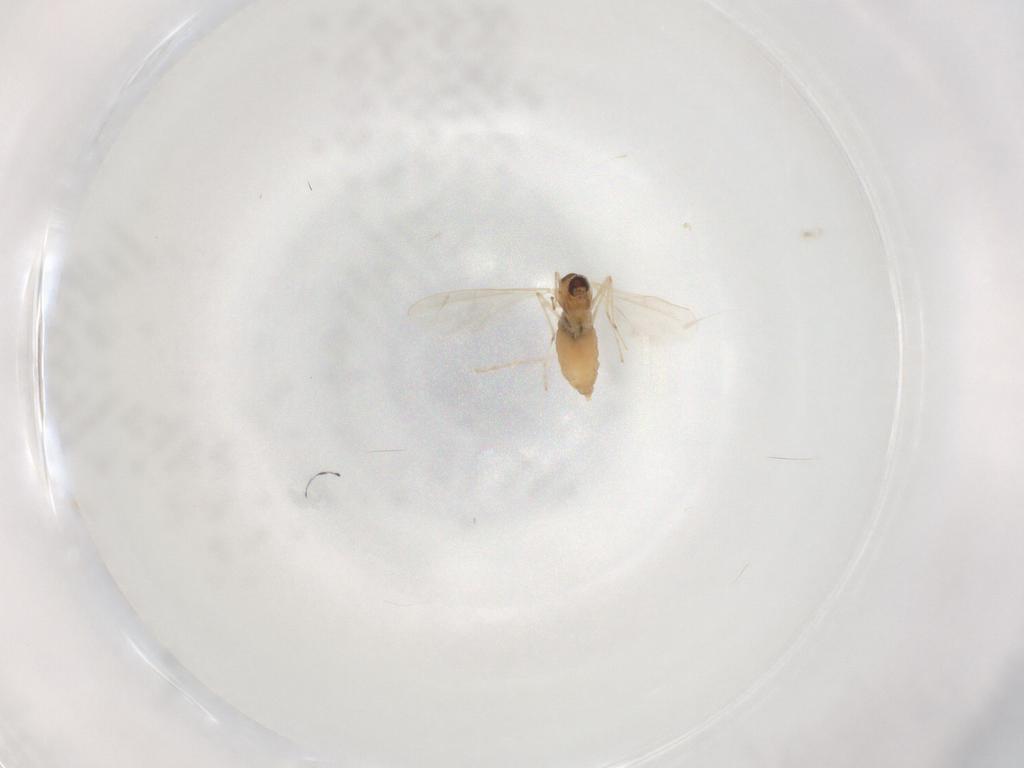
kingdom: Animalia
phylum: Arthropoda
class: Insecta
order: Diptera
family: Cecidomyiidae
